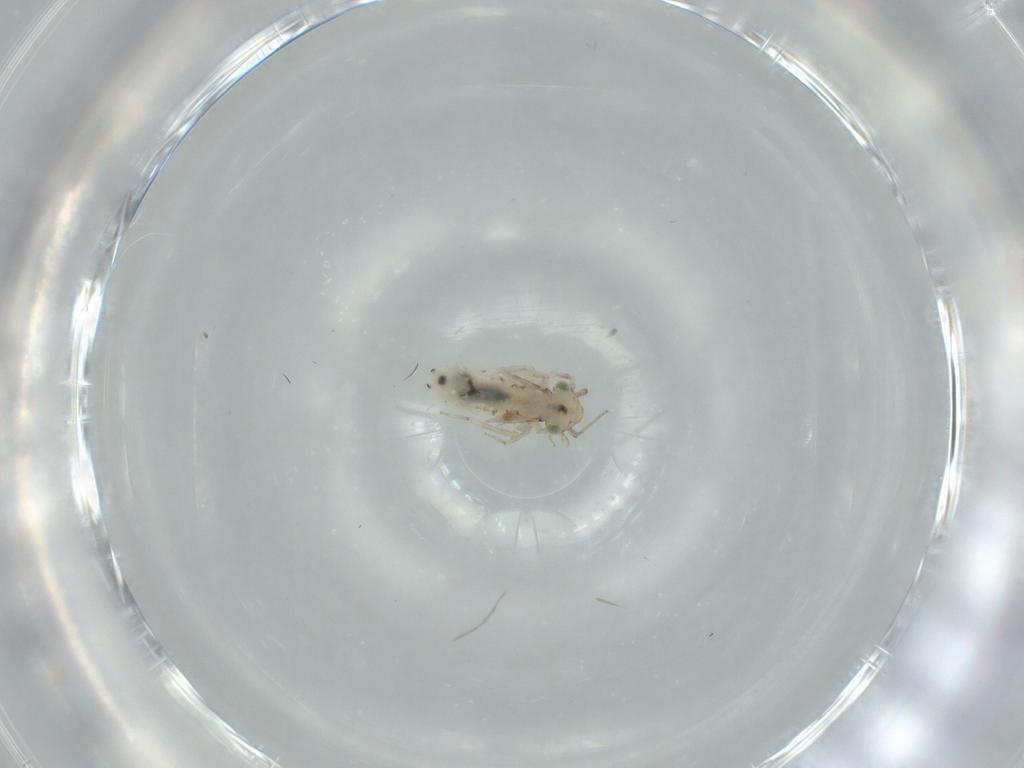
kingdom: Animalia
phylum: Arthropoda
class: Insecta
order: Psocodea
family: Lepidopsocidae
